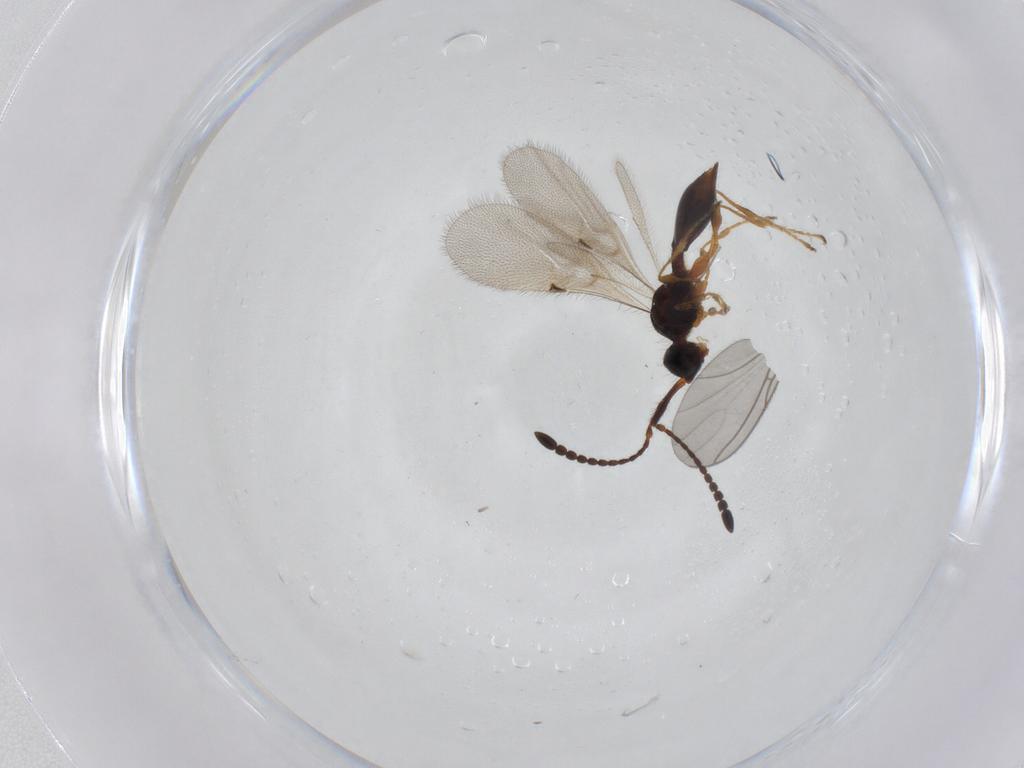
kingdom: Animalia
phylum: Arthropoda
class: Insecta
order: Hymenoptera
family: Diapriidae
